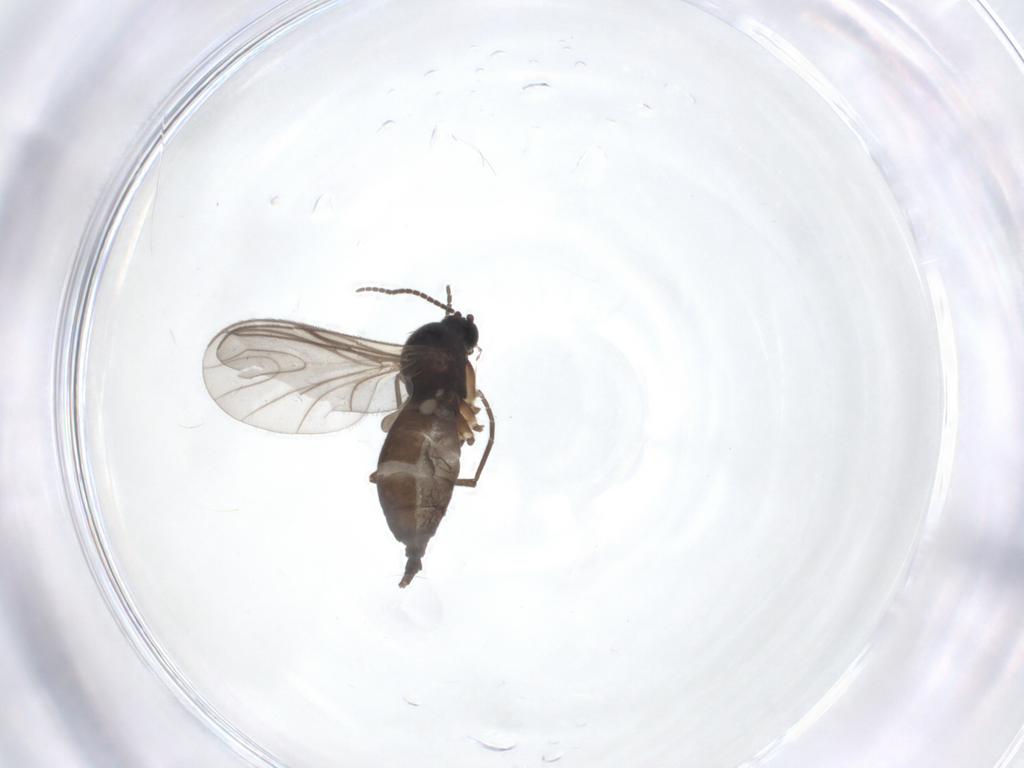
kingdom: Animalia
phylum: Arthropoda
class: Insecta
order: Diptera
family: Sciaridae
